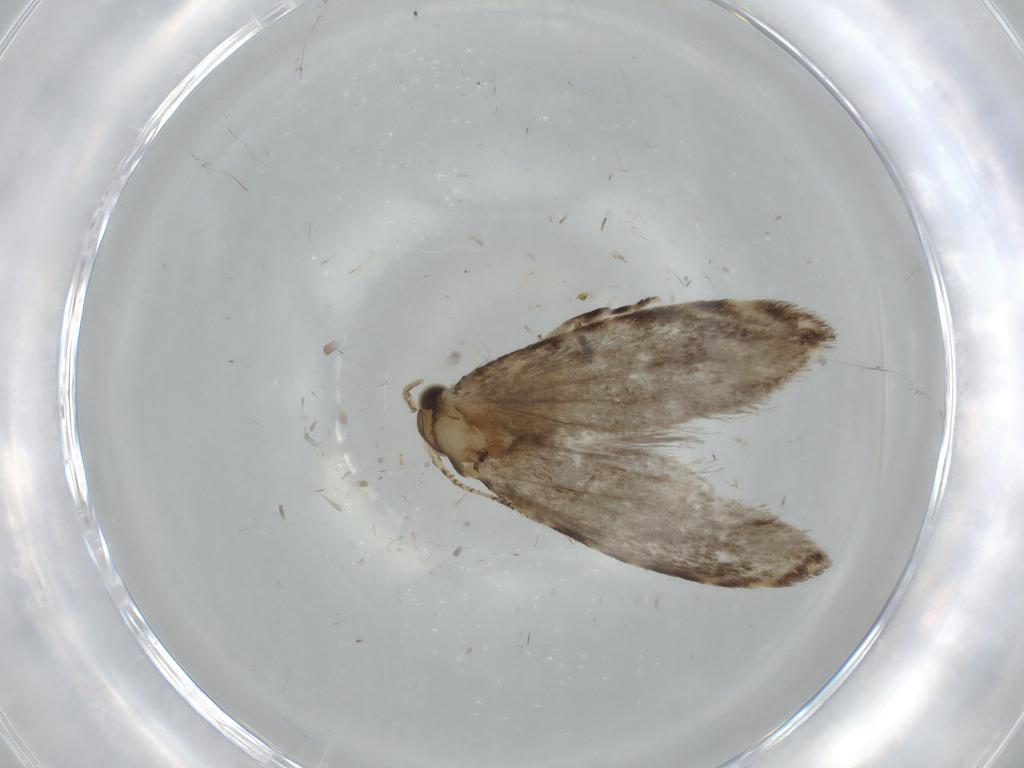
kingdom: Animalia
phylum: Arthropoda
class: Insecta
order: Lepidoptera
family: Tineidae
